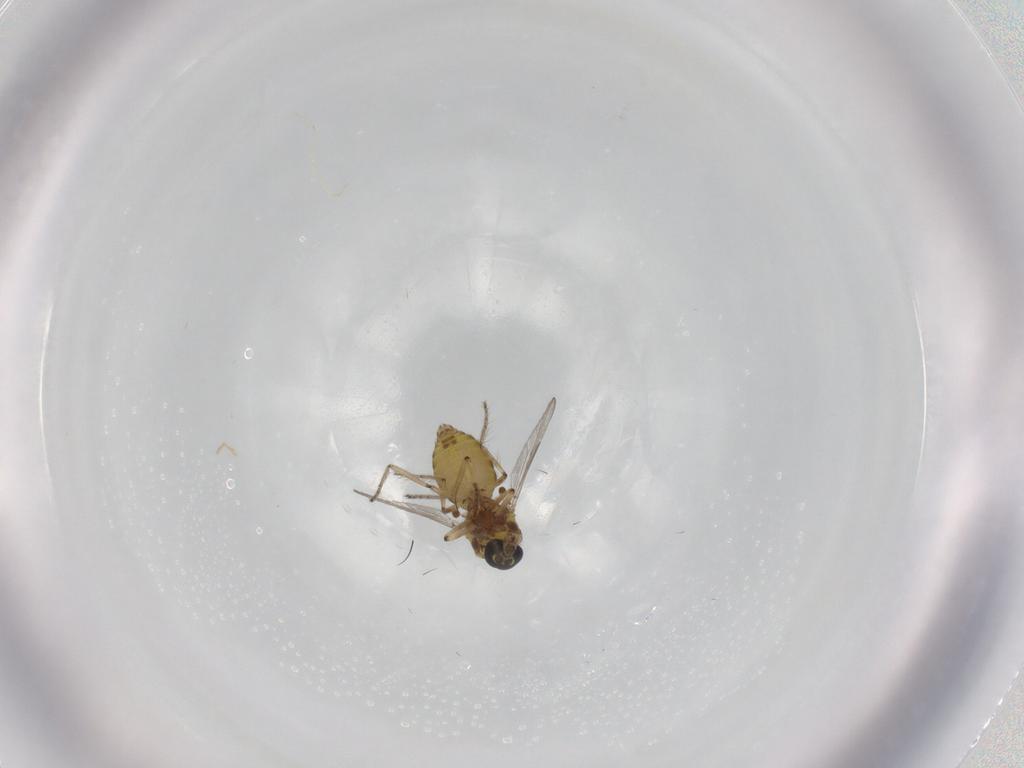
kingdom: Animalia
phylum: Arthropoda
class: Insecta
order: Diptera
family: Ceratopogonidae
